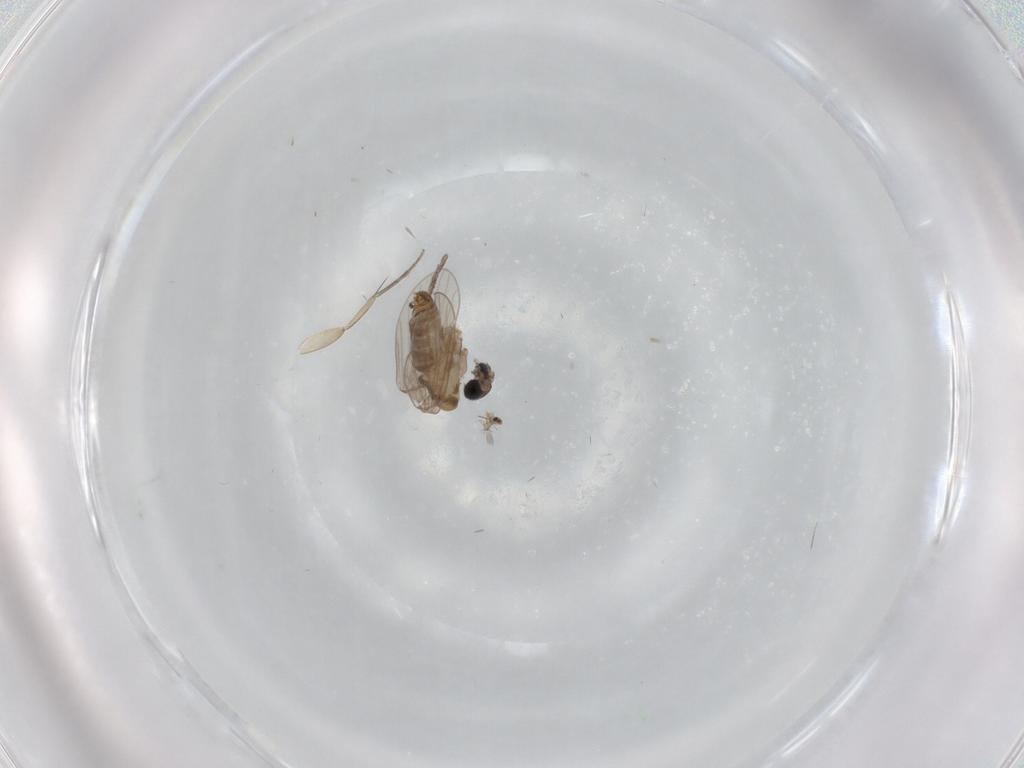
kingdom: Animalia
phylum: Arthropoda
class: Insecta
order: Diptera
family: Phoridae
